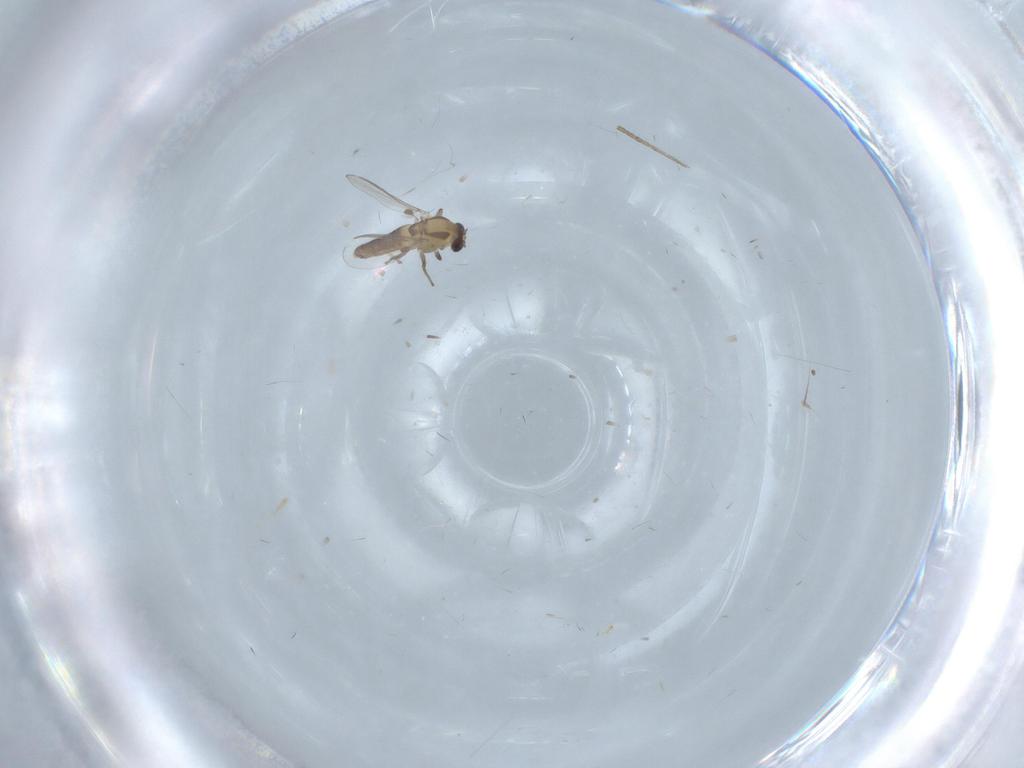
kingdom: Animalia
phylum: Arthropoda
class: Insecta
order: Diptera
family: Chironomidae
